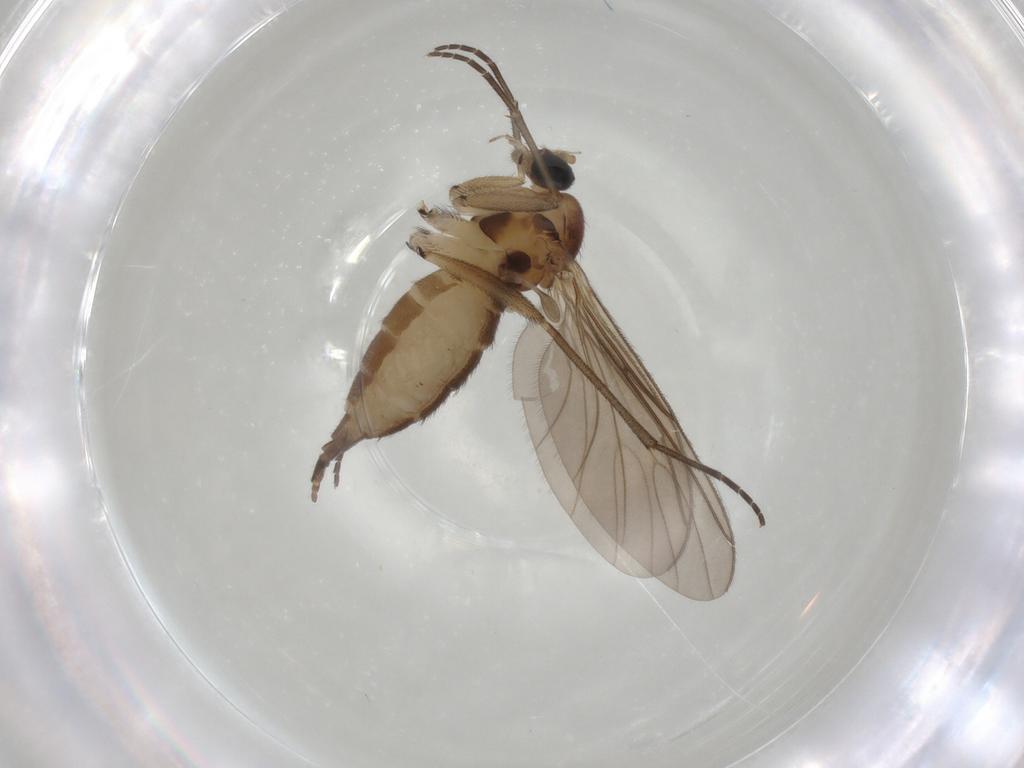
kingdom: Animalia
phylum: Arthropoda
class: Insecta
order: Diptera
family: Sciaridae
